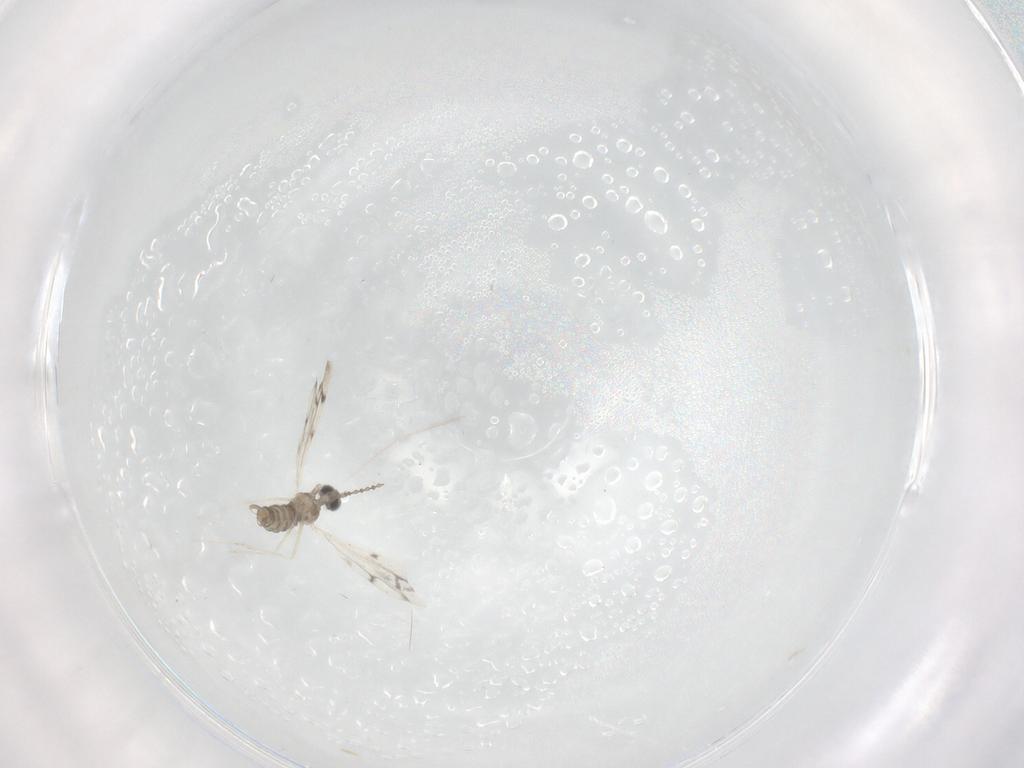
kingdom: Animalia
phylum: Arthropoda
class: Insecta
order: Diptera
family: Cecidomyiidae
